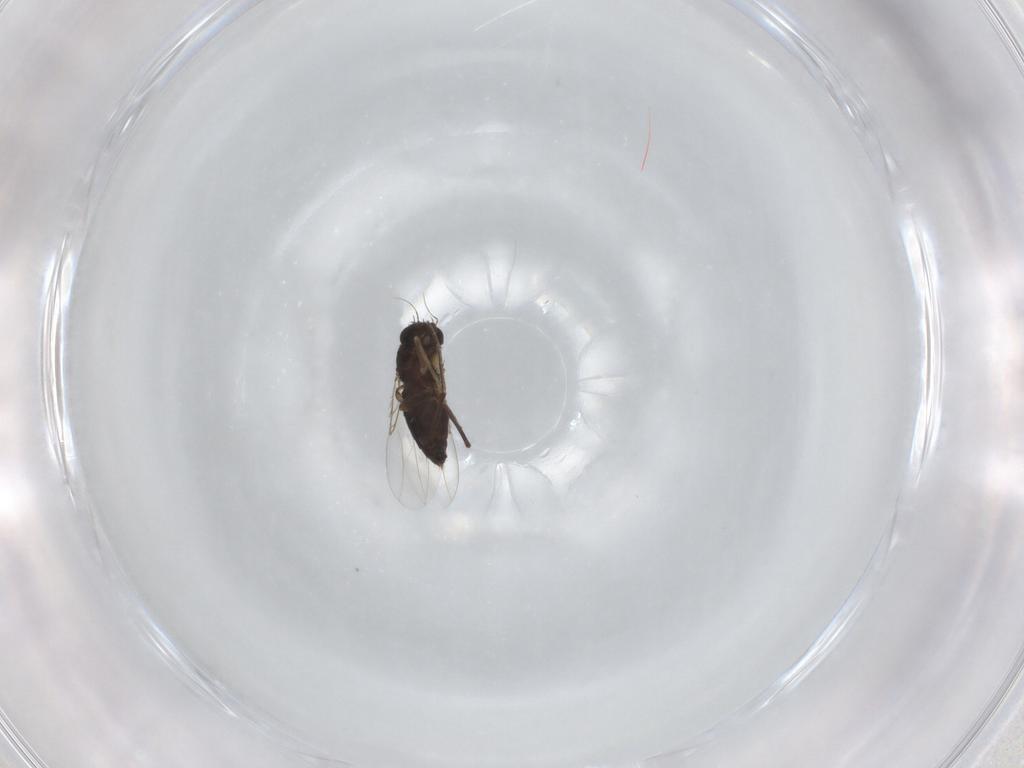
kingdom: Animalia
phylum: Arthropoda
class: Insecta
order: Diptera
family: Phoridae
